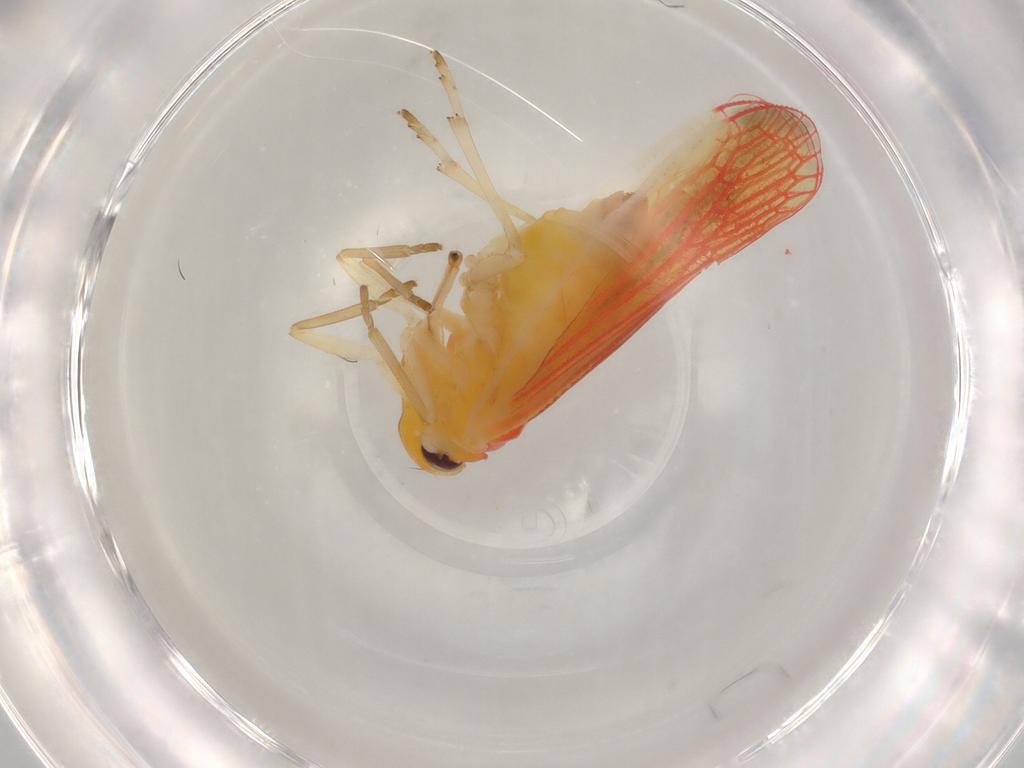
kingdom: Animalia
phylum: Arthropoda
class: Insecta
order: Hemiptera
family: Derbidae
